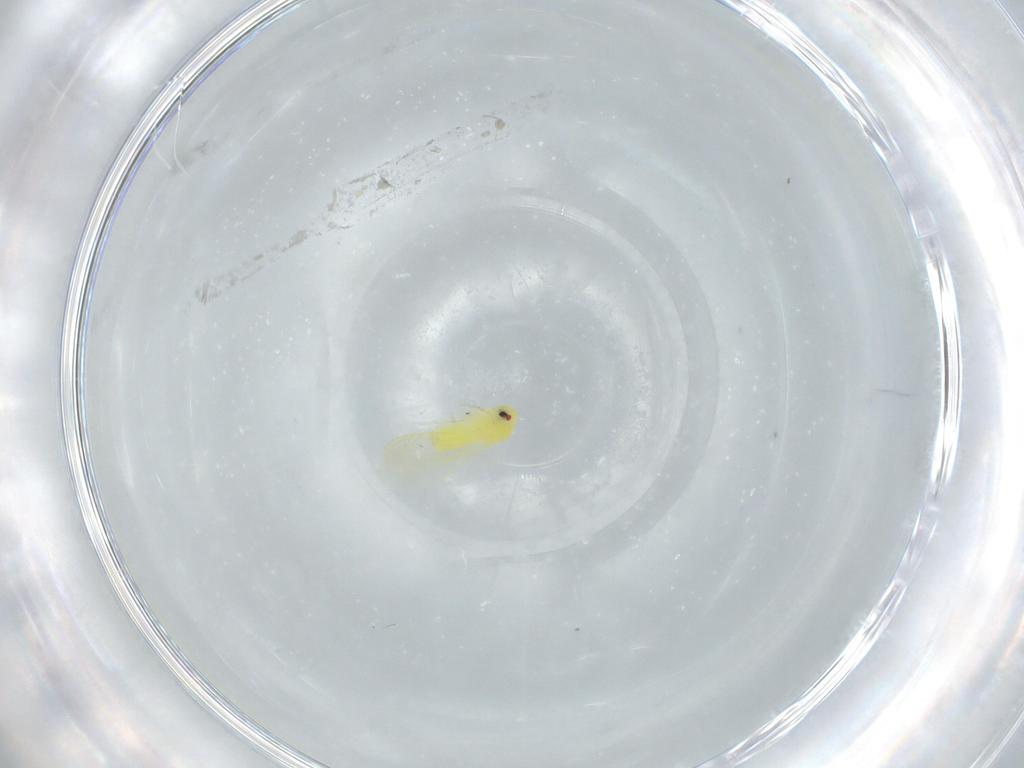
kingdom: Animalia
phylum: Arthropoda
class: Insecta
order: Hemiptera
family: Aleyrodidae
